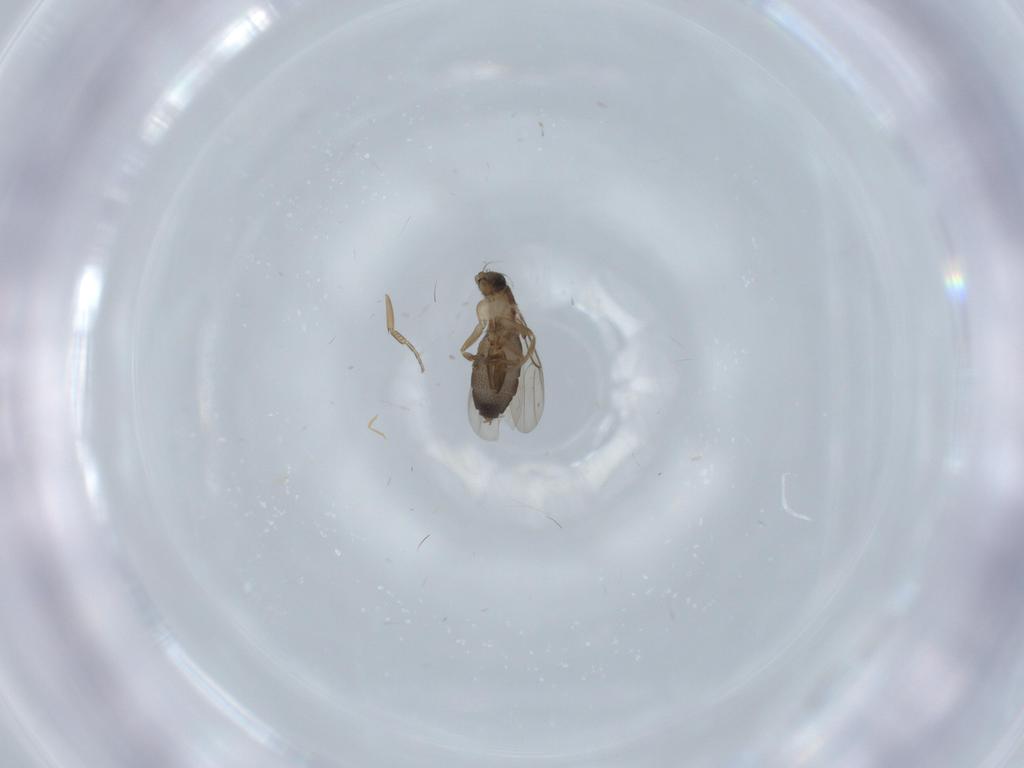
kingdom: Animalia
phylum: Arthropoda
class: Insecta
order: Diptera
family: Phoridae
